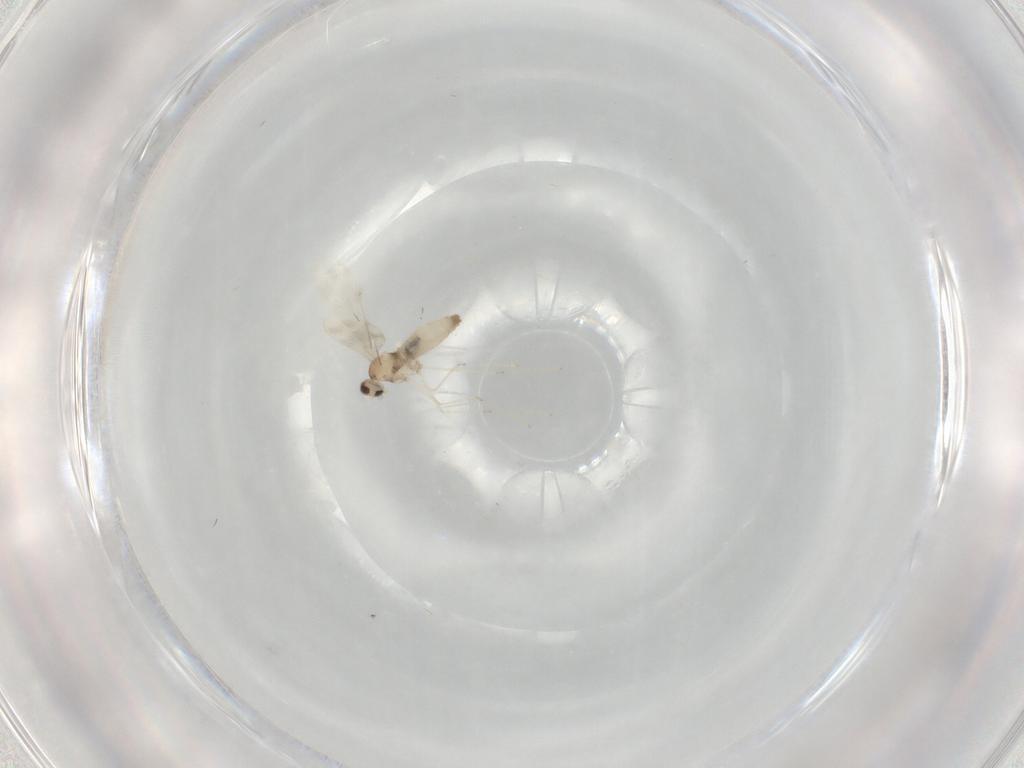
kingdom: Animalia
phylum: Arthropoda
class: Insecta
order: Diptera
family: Cecidomyiidae
